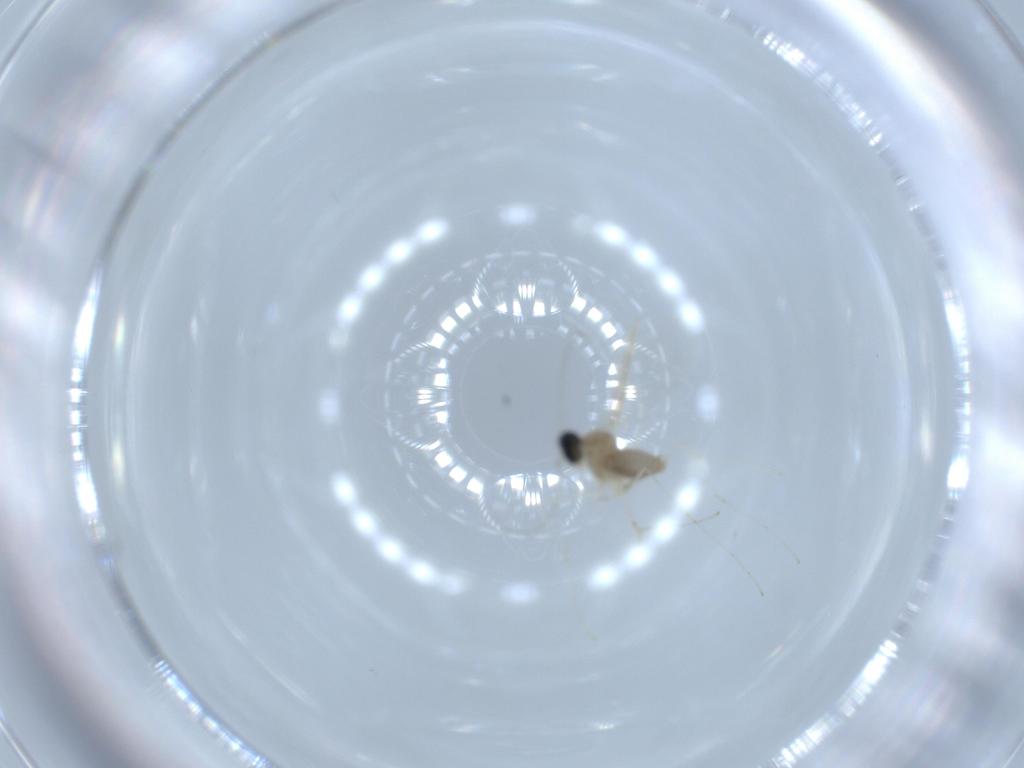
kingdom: Animalia
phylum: Arthropoda
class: Insecta
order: Diptera
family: Cecidomyiidae
